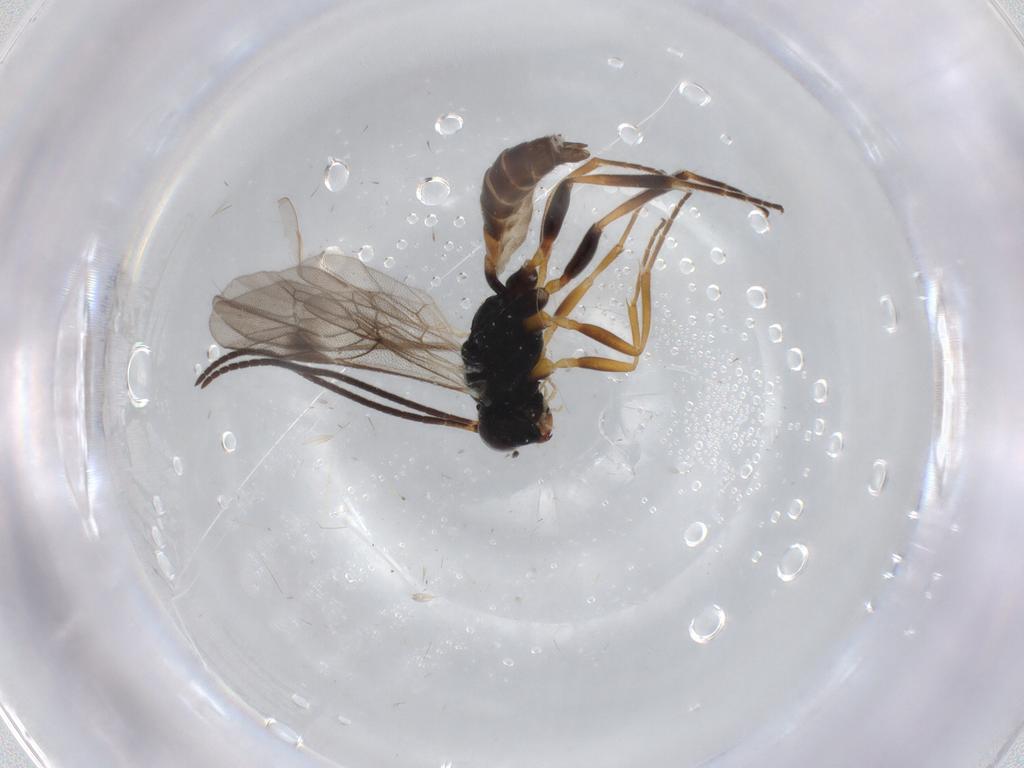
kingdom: Animalia
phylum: Arthropoda
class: Insecta
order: Hymenoptera
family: Ichneumonidae
